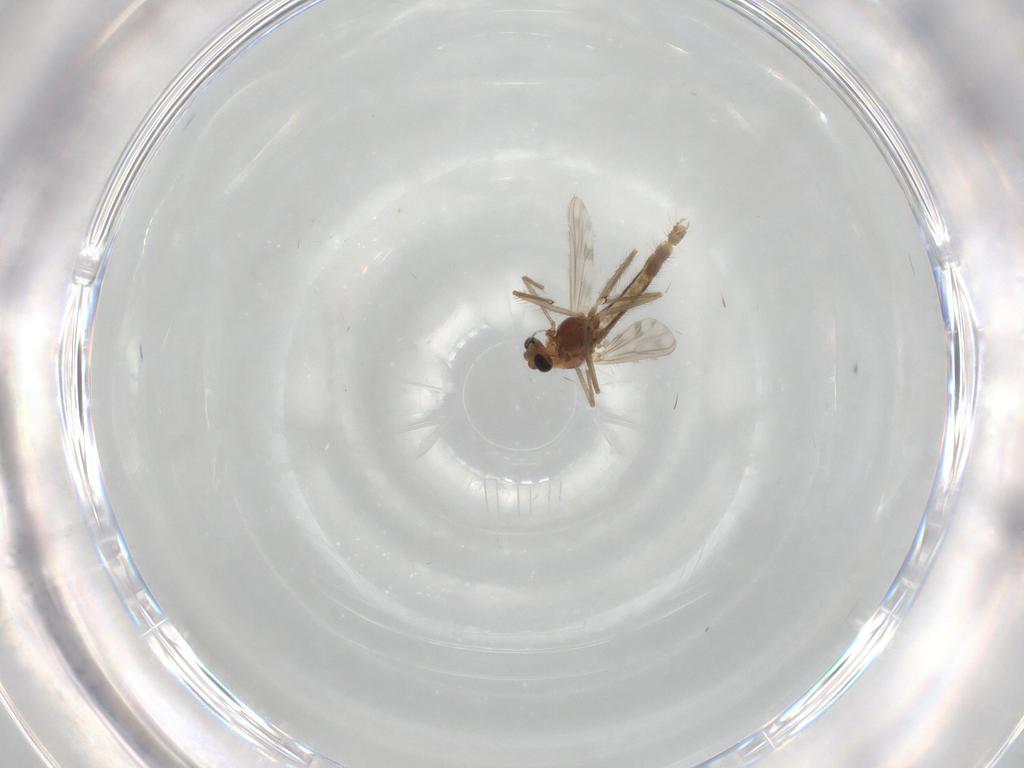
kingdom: Animalia
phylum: Arthropoda
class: Insecta
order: Diptera
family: Chironomidae
